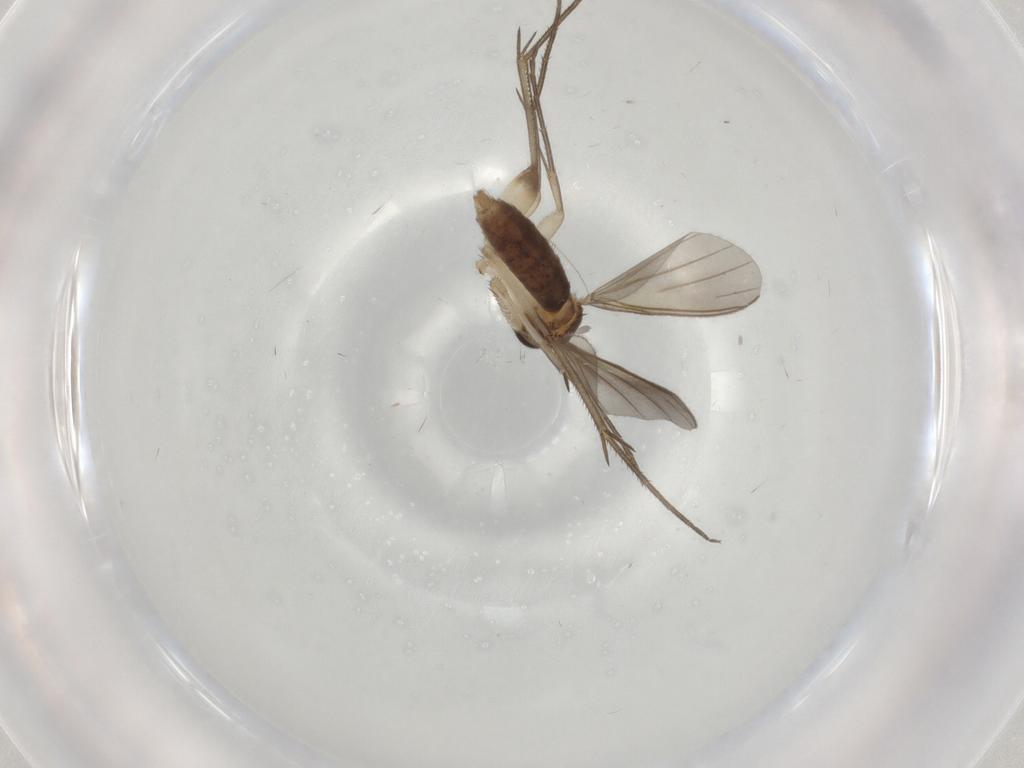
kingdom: Animalia
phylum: Arthropoda
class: Insecta
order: Diptera
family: Mycetophilidae
